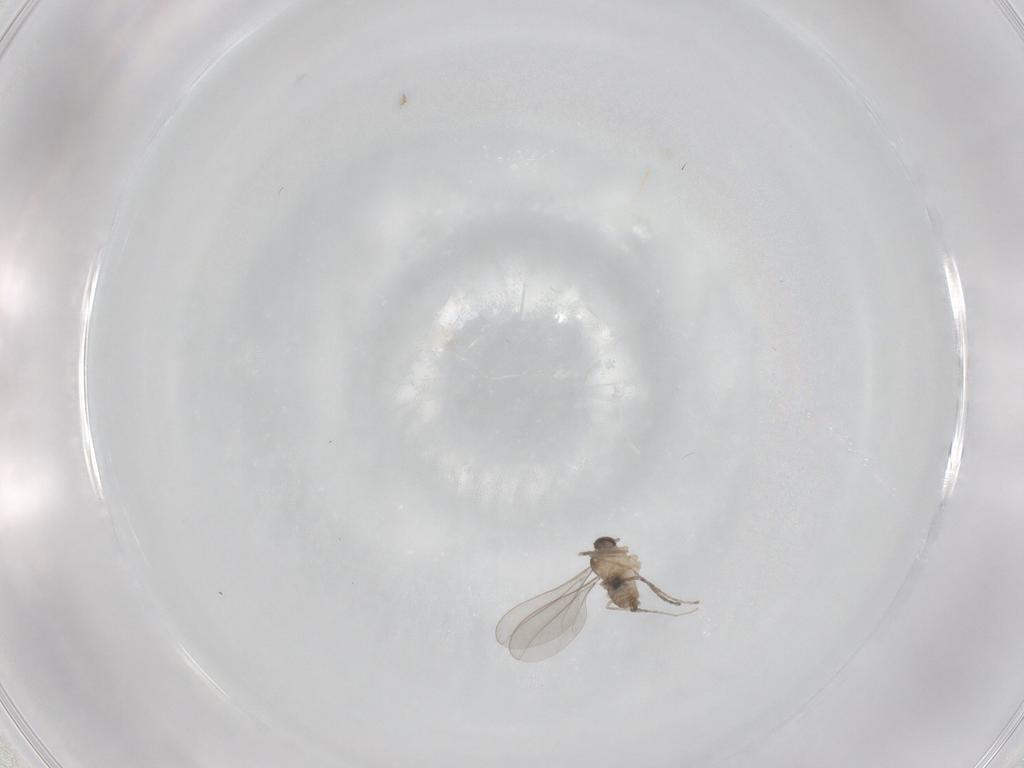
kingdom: Animalia
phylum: Arthropoda
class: Insecta
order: Diptera
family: Cecidomyiidae
